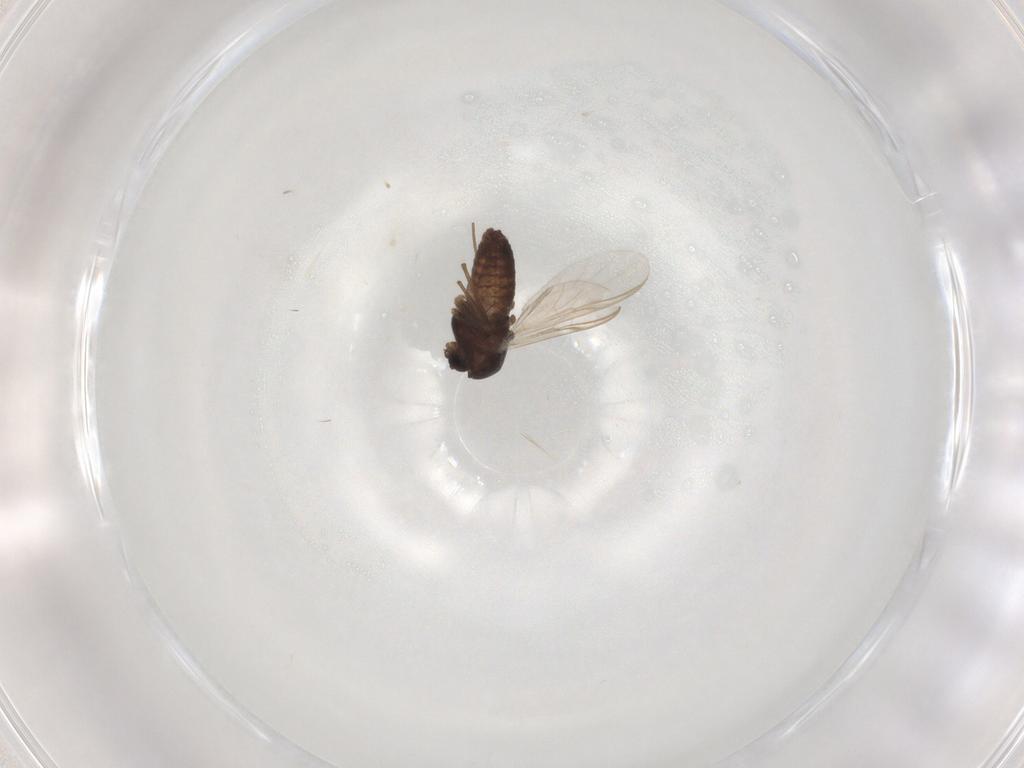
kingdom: Animalia
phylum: Arthropoda
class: Insecta
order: Diptera
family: Chironomidae
